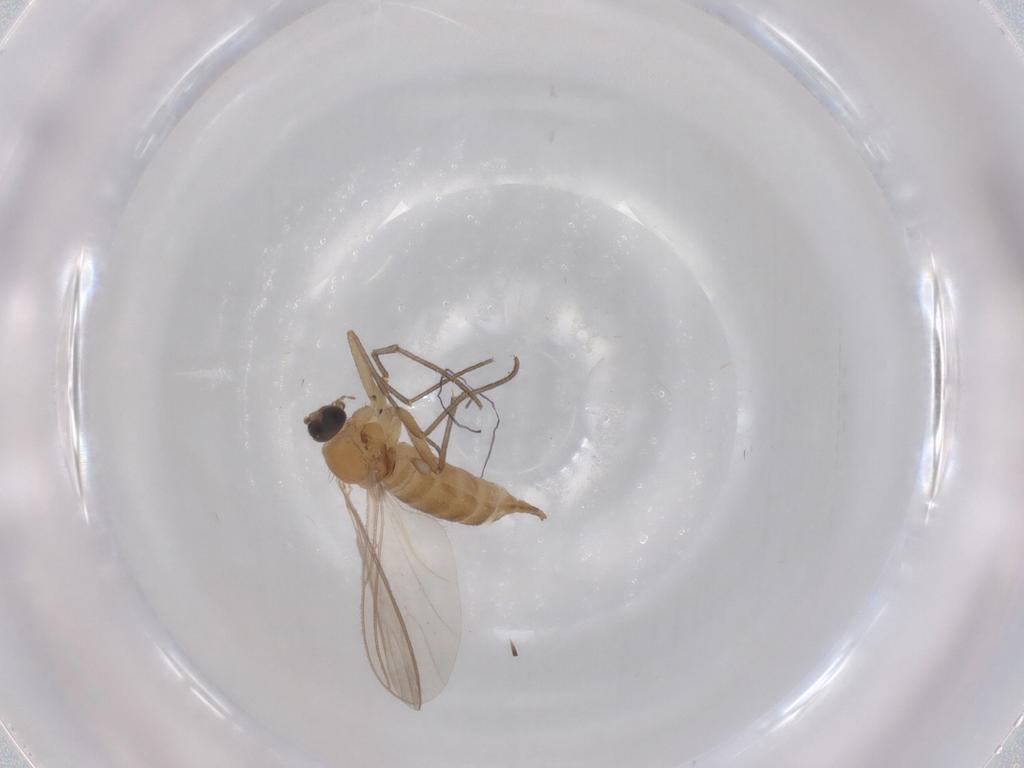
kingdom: Animalia
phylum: Arthropoda
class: Insecta
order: Diptera
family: Sciaridae
